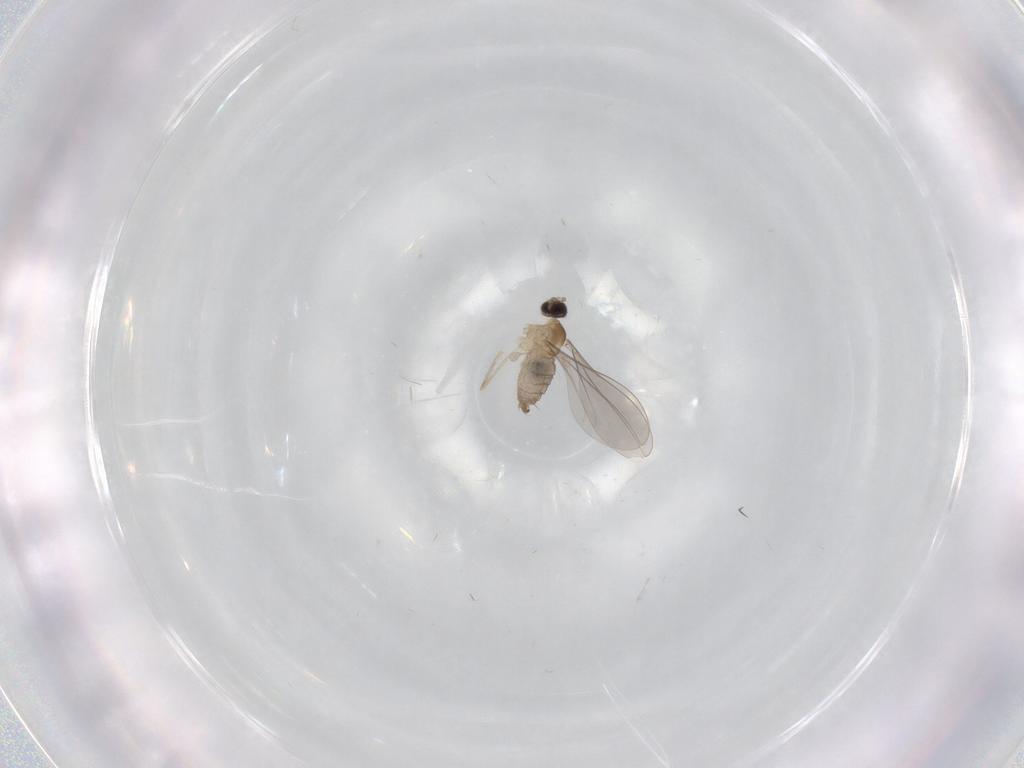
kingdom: Animalia
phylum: Arthropoda
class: Insecta
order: Diptera
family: Cecidomyiidae
